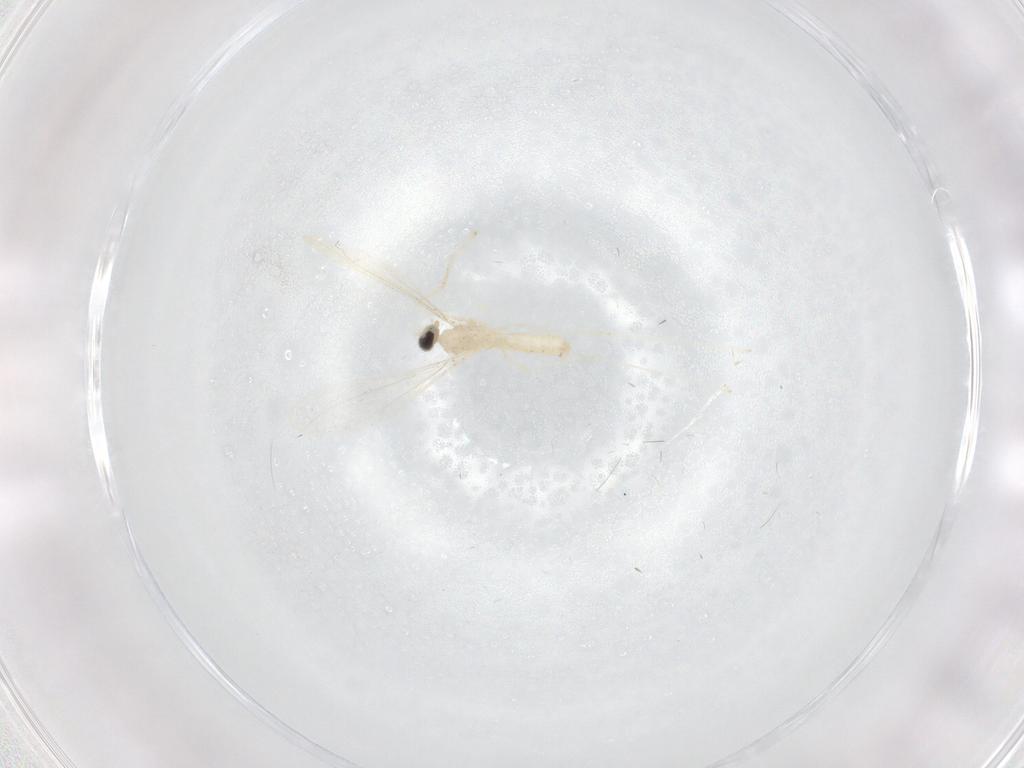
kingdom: Animalia
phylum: Arthropoda
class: Insecta
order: Diptera
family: Cecidomyiidae
